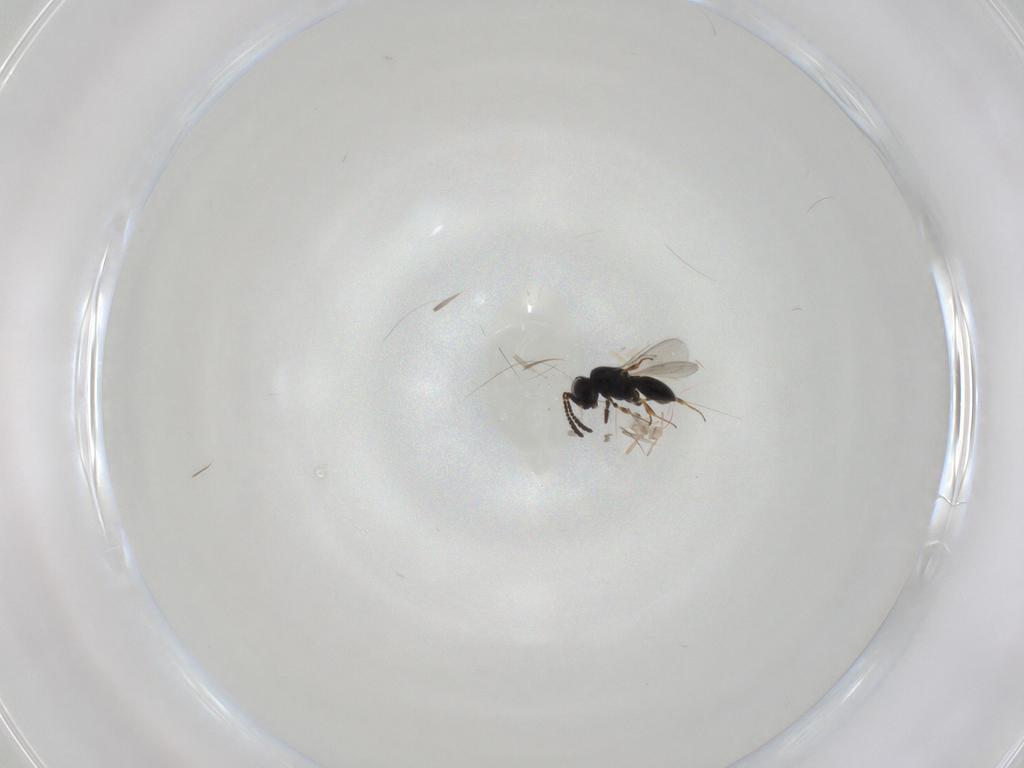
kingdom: Animalia
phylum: Arthropoda
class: Insecta
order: Hymenoptera
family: Scelionidae
